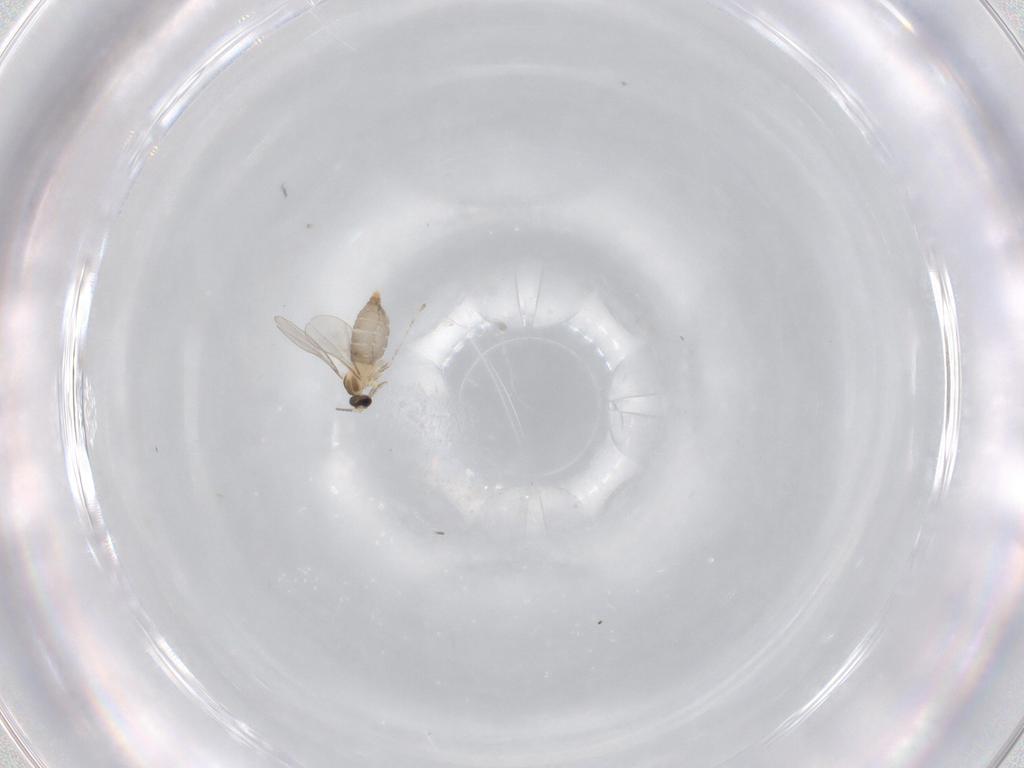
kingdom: Animalia
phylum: Arthropoda
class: Insecta
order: Diptera
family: Cecidomyiidae
